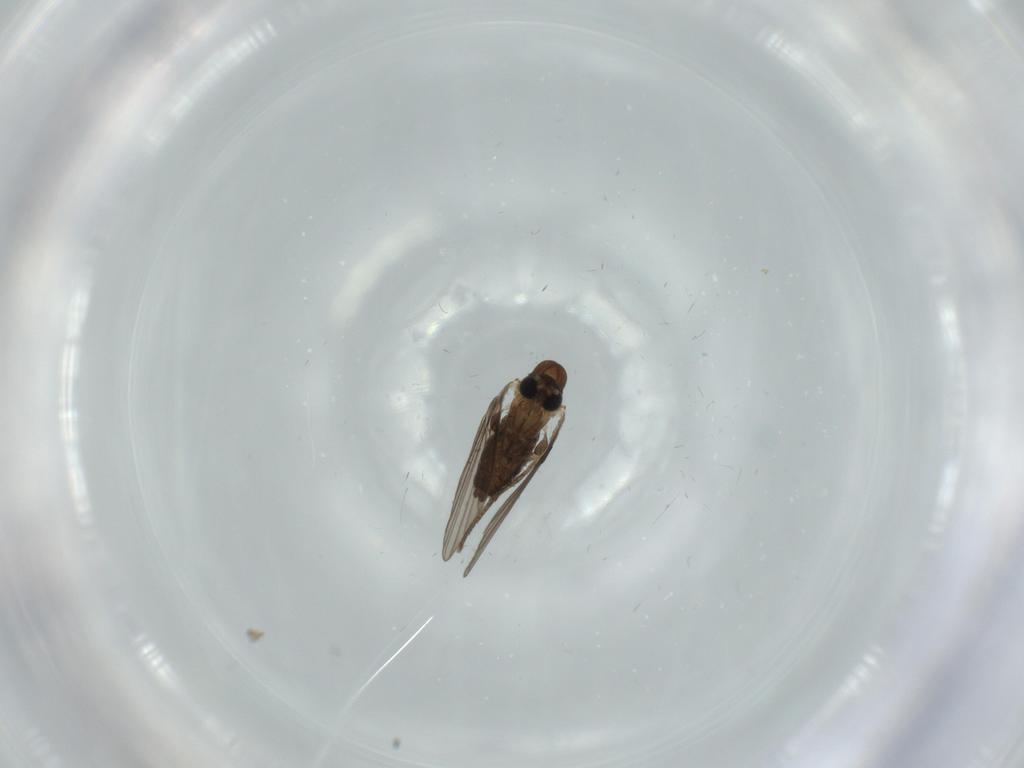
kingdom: Animalia
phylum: Arthropoda
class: Insecta
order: Diptera
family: Psychodidae
